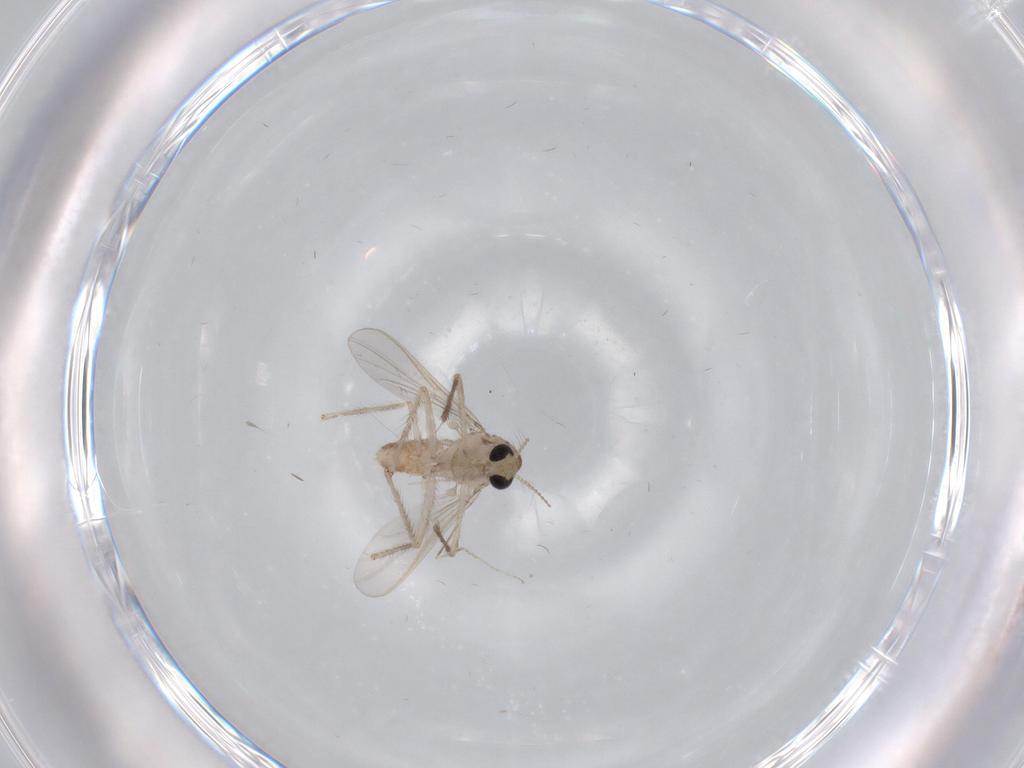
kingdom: Animalia
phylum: Arthropoda
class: Insecta
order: Diptera
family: Chironomidae
